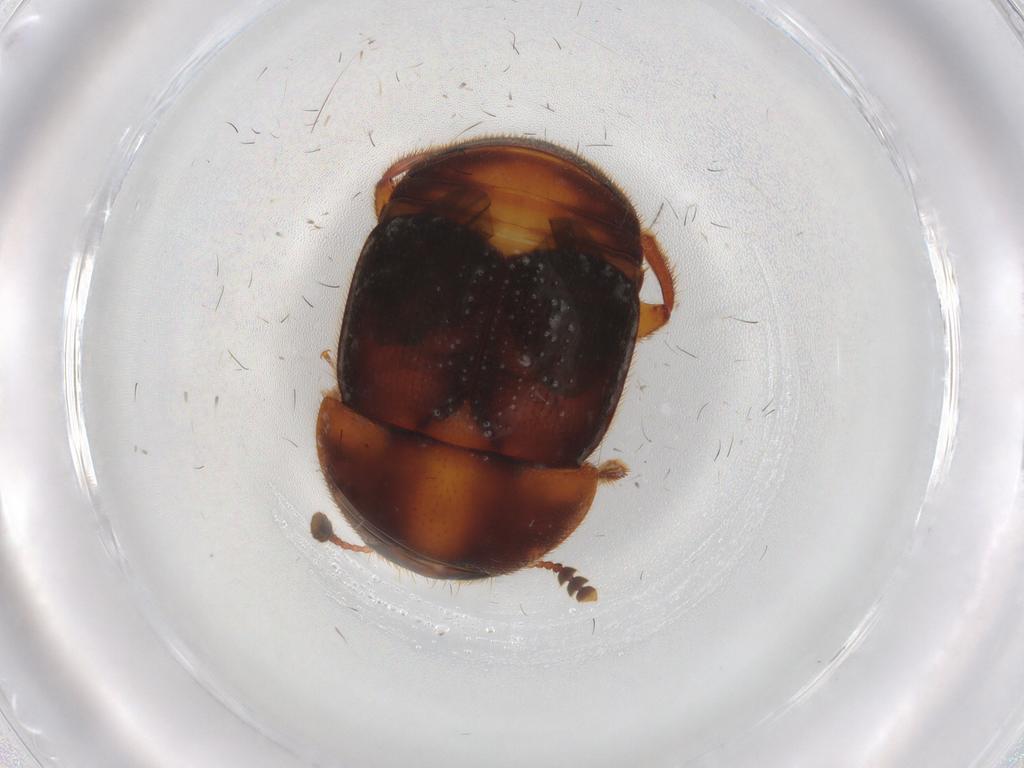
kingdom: Animalia
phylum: Arthropoda
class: Insecta
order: Coleoptera
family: Nitidulidae
